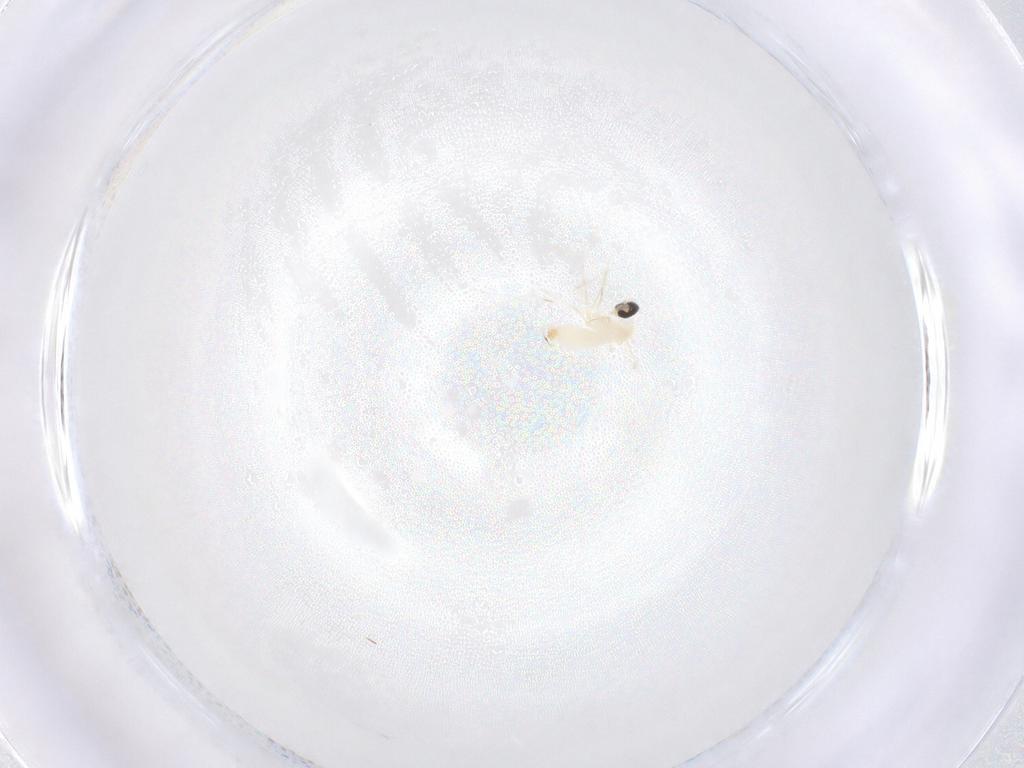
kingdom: Animalia
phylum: Arthropoda
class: Insecta
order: Diptera
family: Cecidomyiidae
